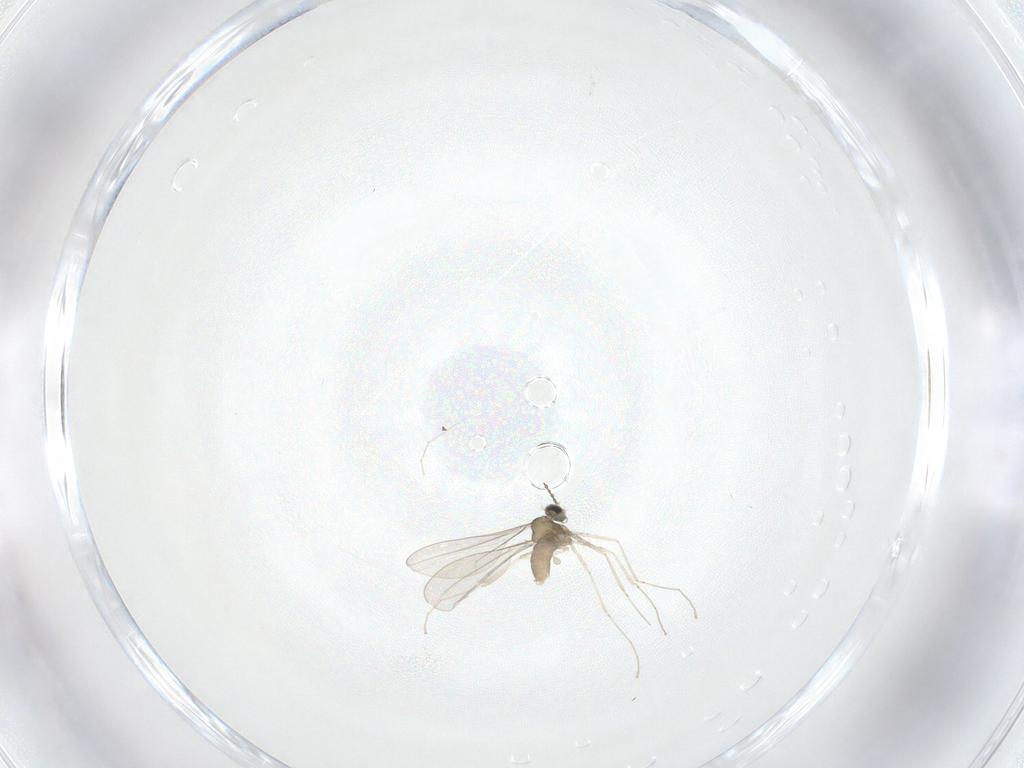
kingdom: Animalia
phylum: Arthropoda
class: Insecta
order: Diptera
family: Cecidomyiidae
